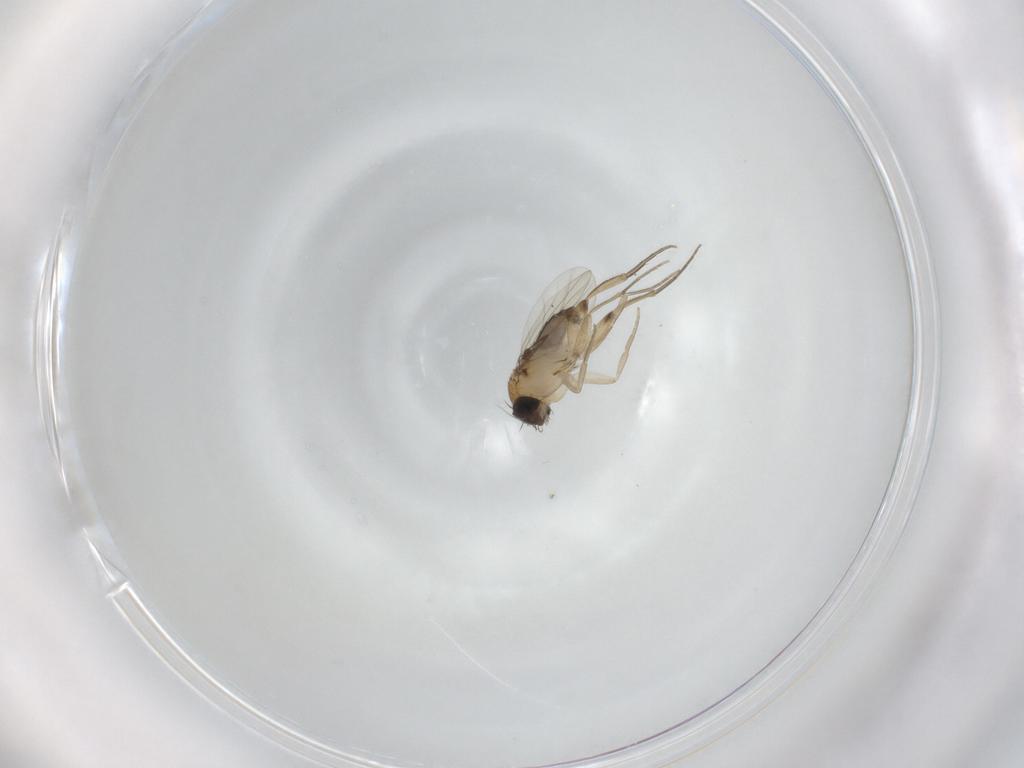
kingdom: Animalia
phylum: Arthropoda
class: Insecta
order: Diptera
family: Phoridae
